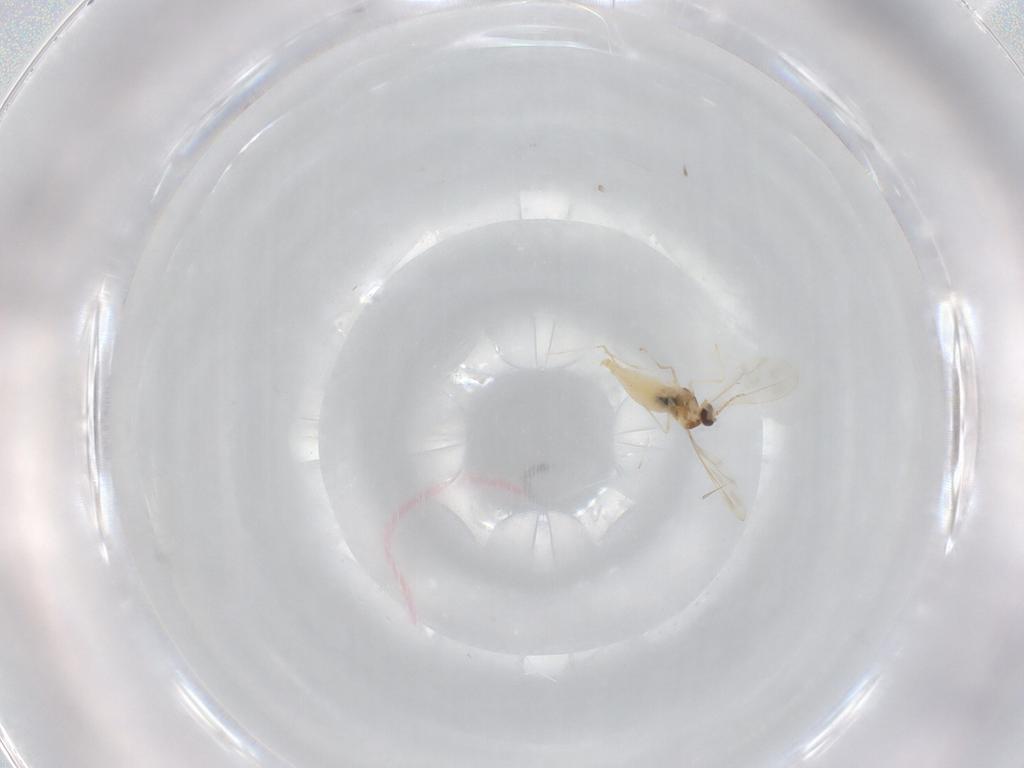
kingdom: Animalia
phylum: Arthropoda
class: Insecta
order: Diptera
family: Cecidomyiidae
